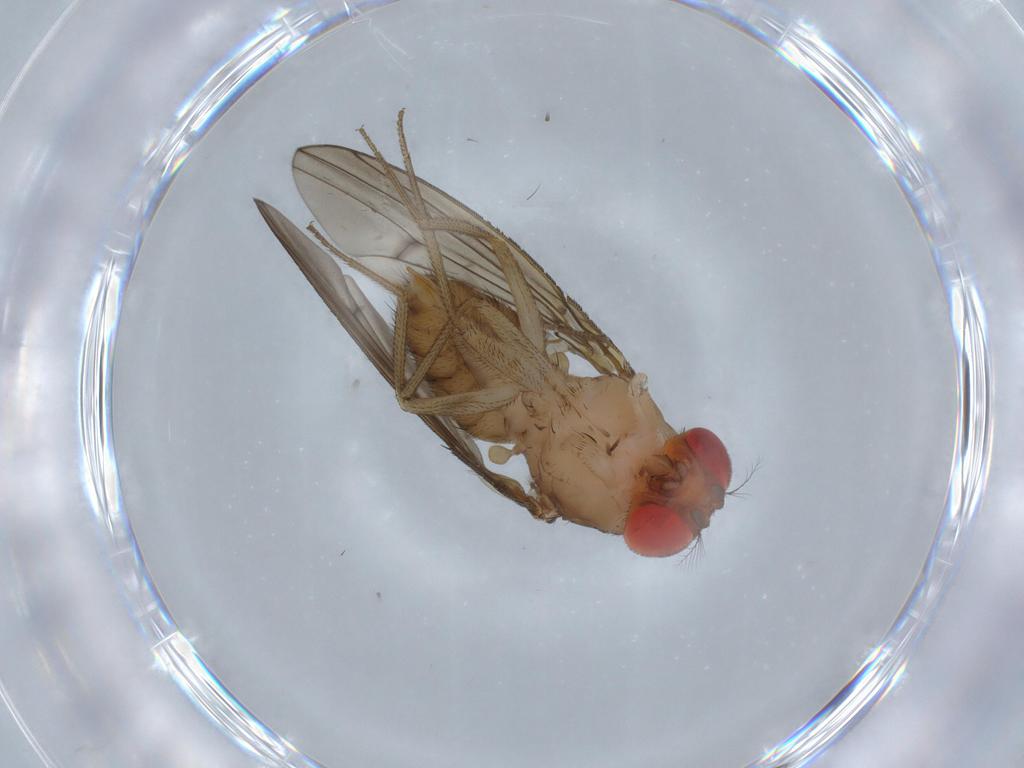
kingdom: Animalia
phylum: Arthropoda
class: Insecta
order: Diptera
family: Drosophilidae
